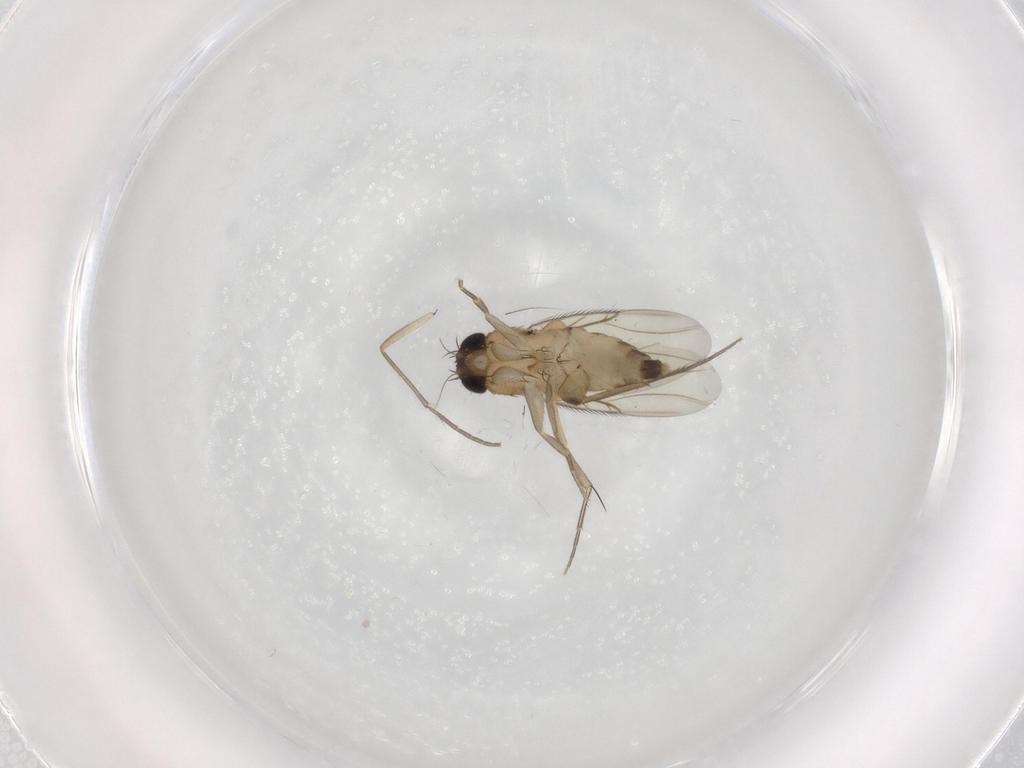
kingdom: Animalia
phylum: Arthropoda
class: Insecta
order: Diptera
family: Phoridae
